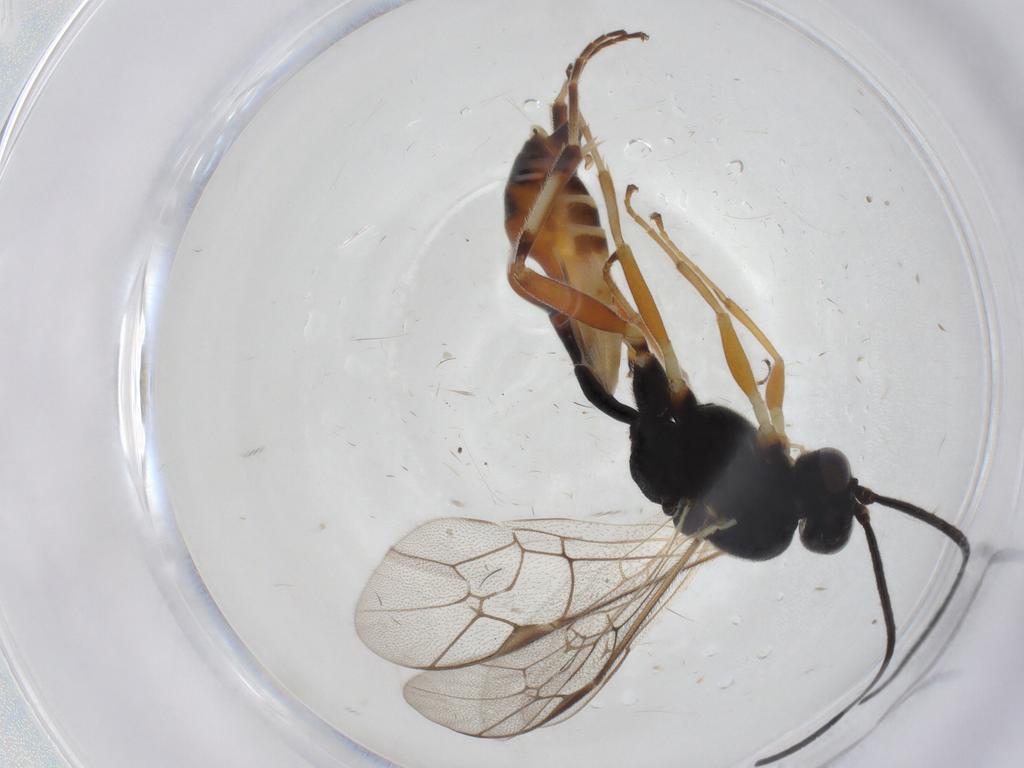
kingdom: Animalia
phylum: Arthropoda
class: Insecta
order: Hymenoptera
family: Ichneumonidae
